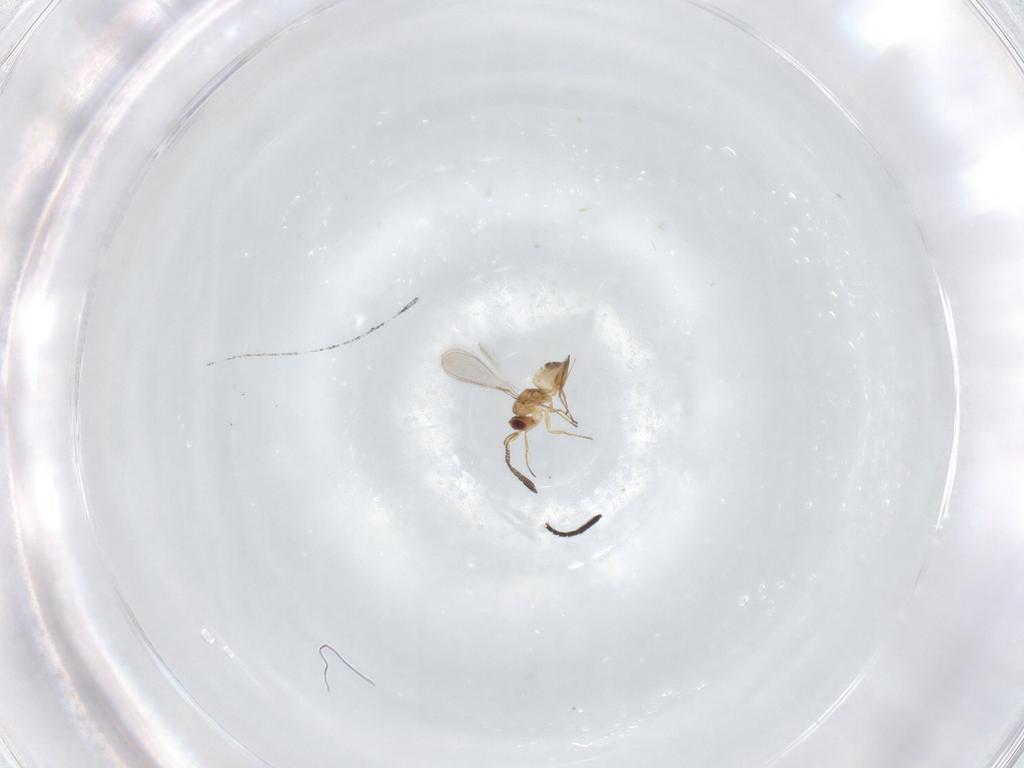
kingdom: Animalia
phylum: Arthropoda
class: Insecta
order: Diptera
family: Agromyzidae
